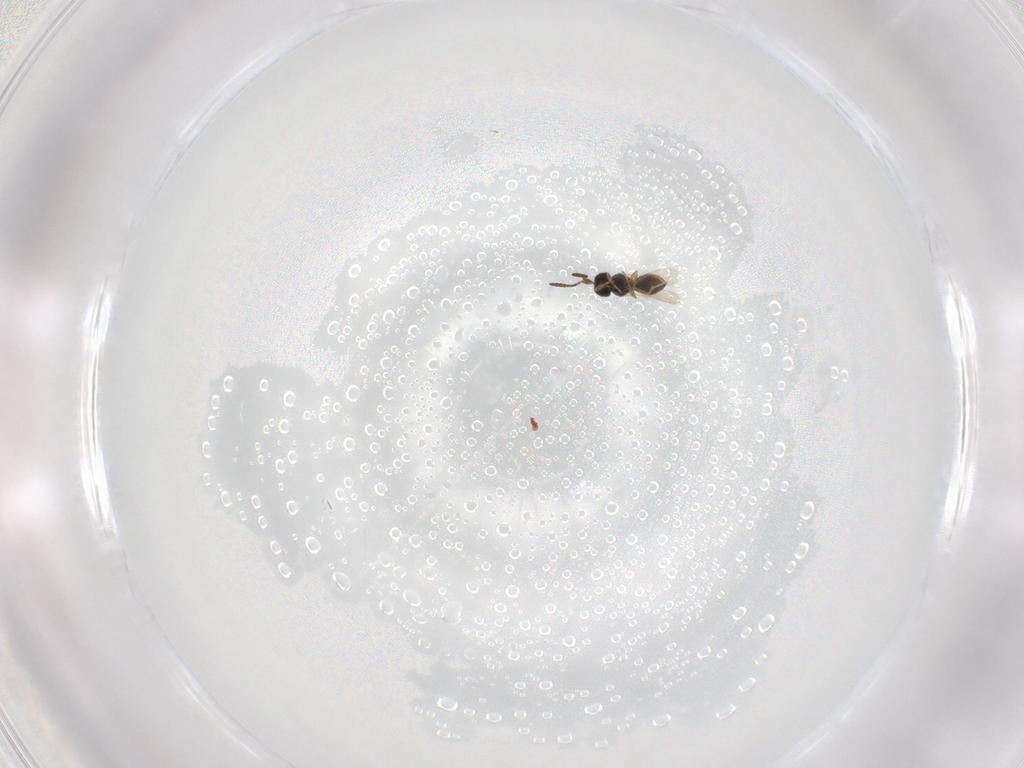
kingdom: Animalia
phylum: Arthropoda
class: Insecta
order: Hymenoptera
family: Scelionidae
